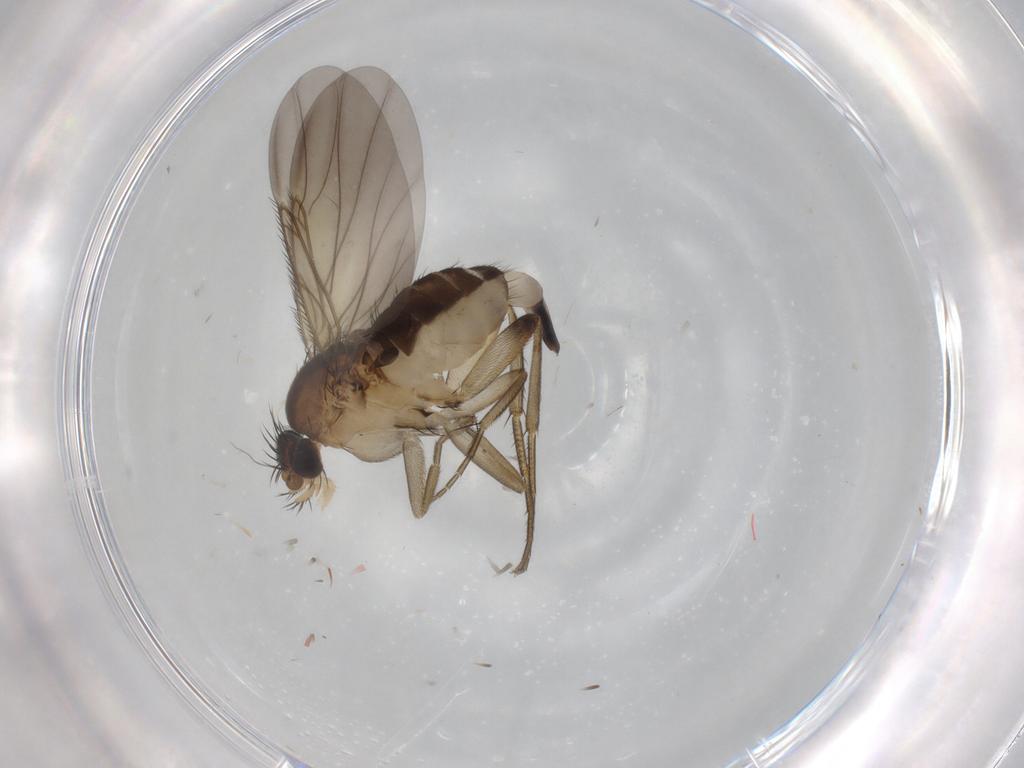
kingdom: Animalia
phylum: Arthropoda
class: Insecta
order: Diptera
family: Phoridae
